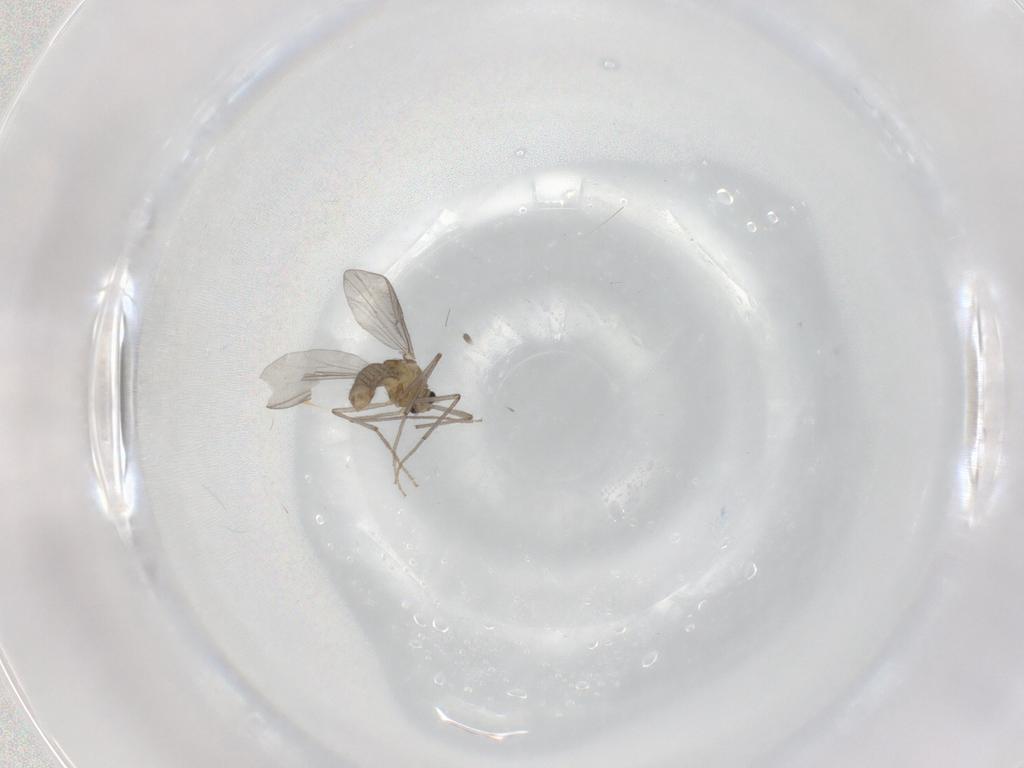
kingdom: Animalia
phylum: Arthropoda
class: Insecta
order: Diptera
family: Chironomidae
